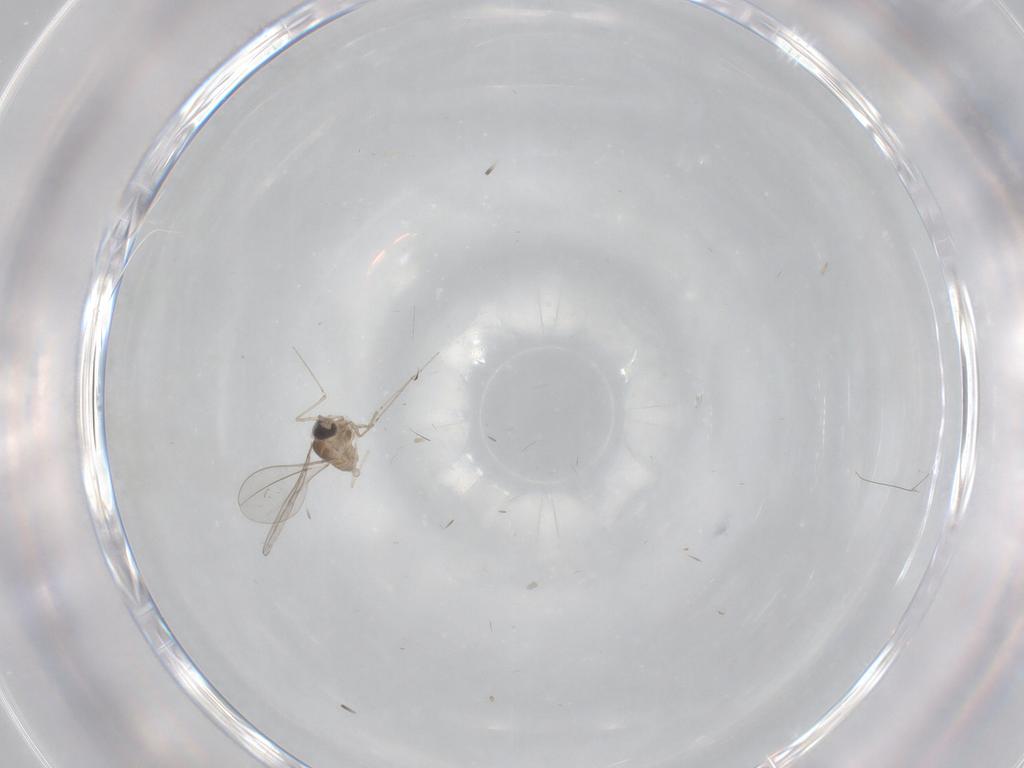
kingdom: Animalia
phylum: Arthropoda
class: Insecta
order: Diptera
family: Cecidomyiidae
